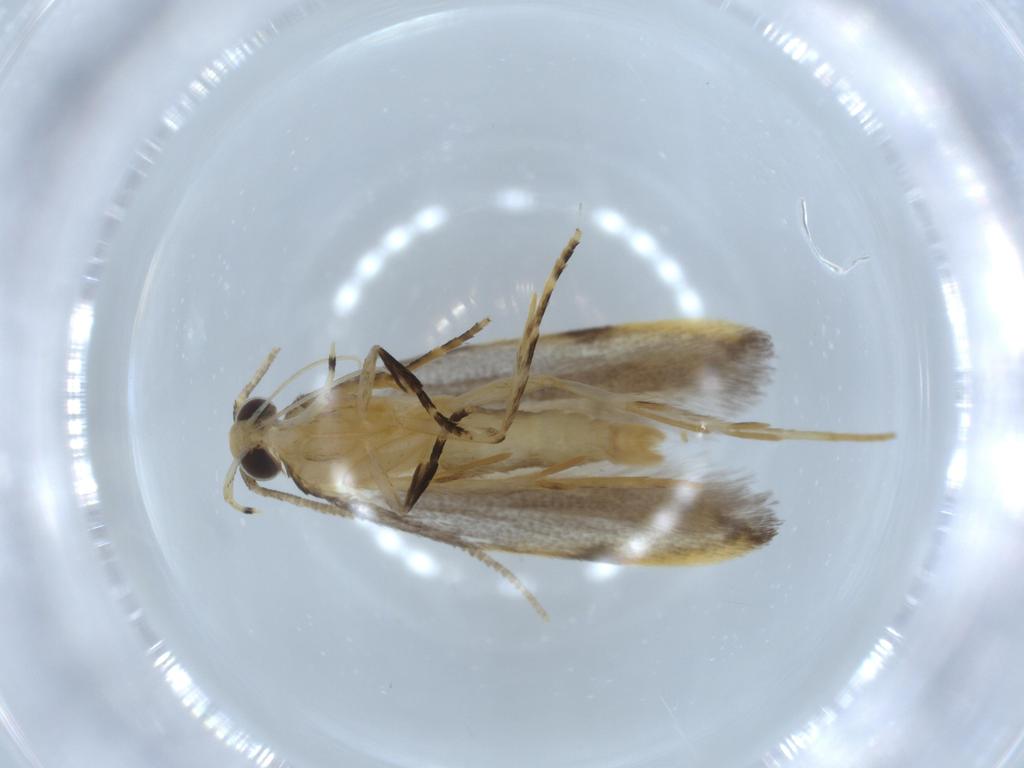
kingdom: Animalia
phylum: Arthropoda
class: Insecta
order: Lepidoptera
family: Autostichidae
